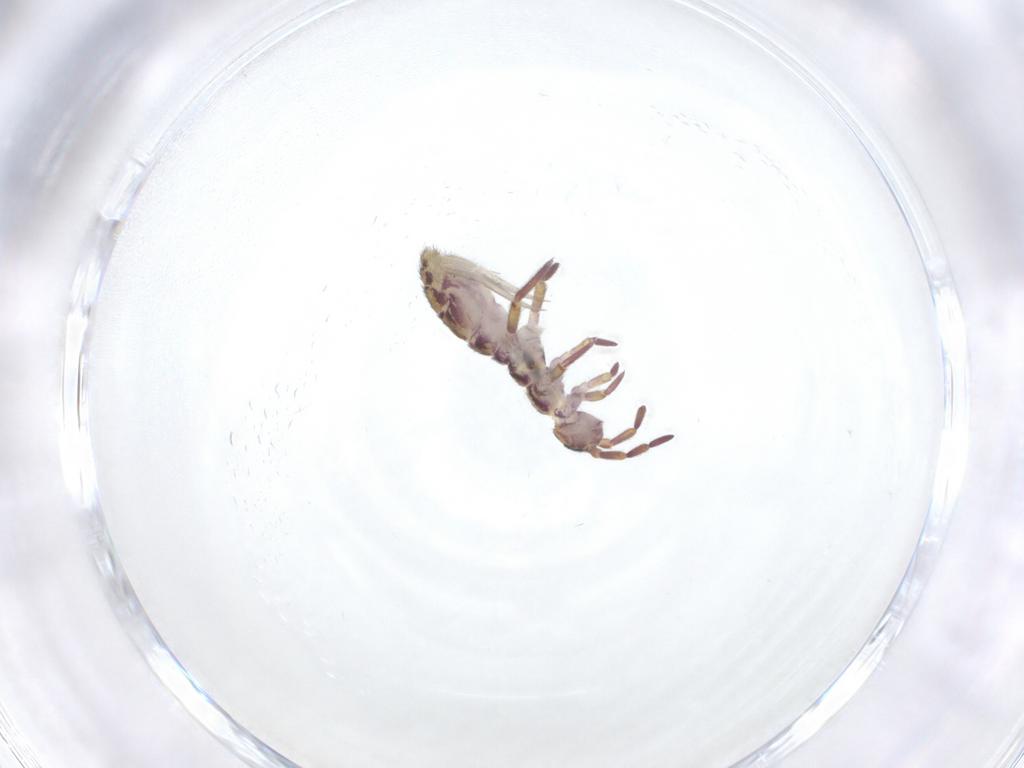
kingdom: Animalia
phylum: Arthropoda
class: Collembola
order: Entomobryomorpha
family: Isotomidae
